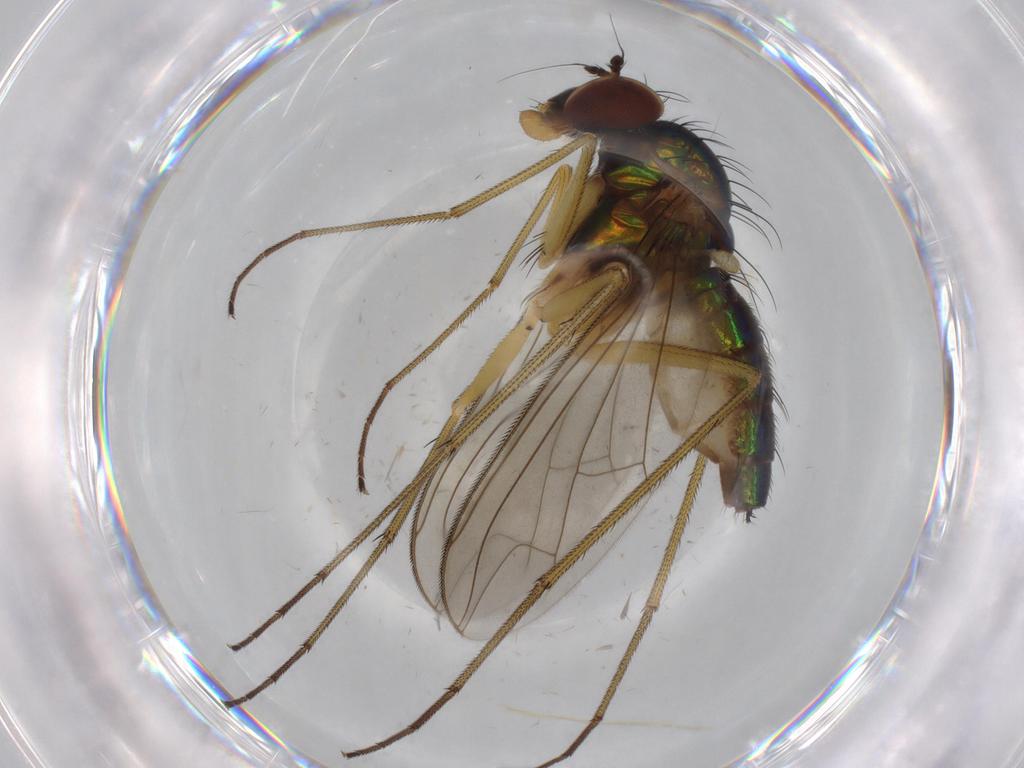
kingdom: Animalia
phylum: Arthropoda
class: Insecta
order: Diptera
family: Dolichopodidae
